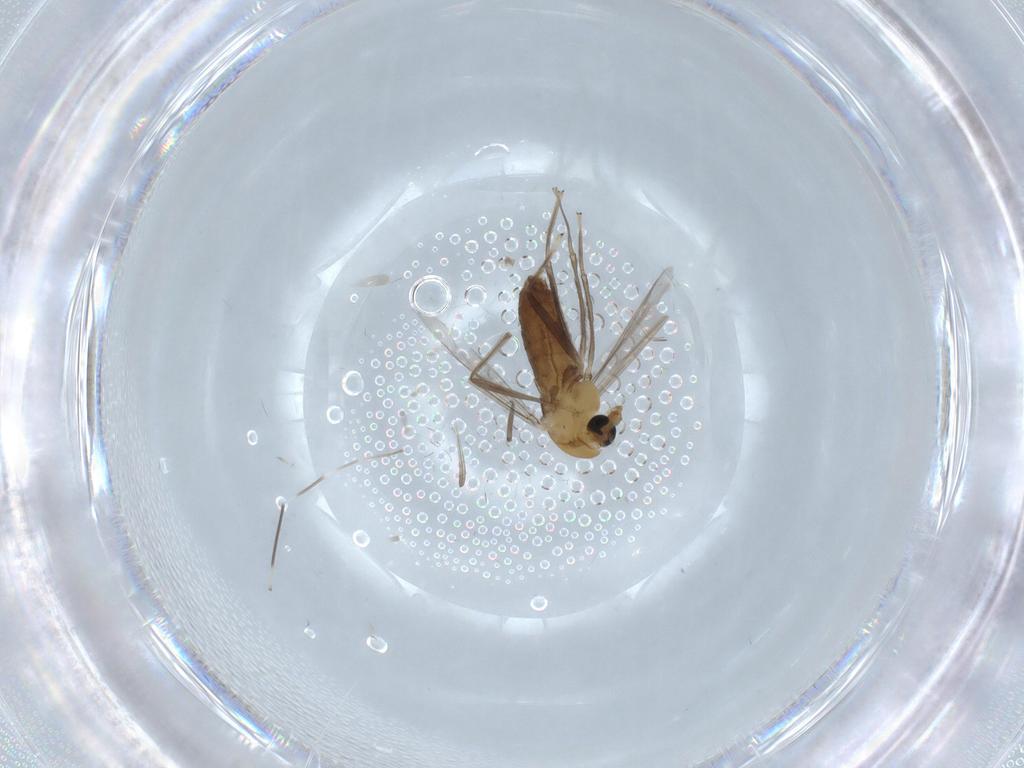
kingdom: Animalia
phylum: Arthropoda
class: Insecta
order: Diptera
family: Chironomidae
